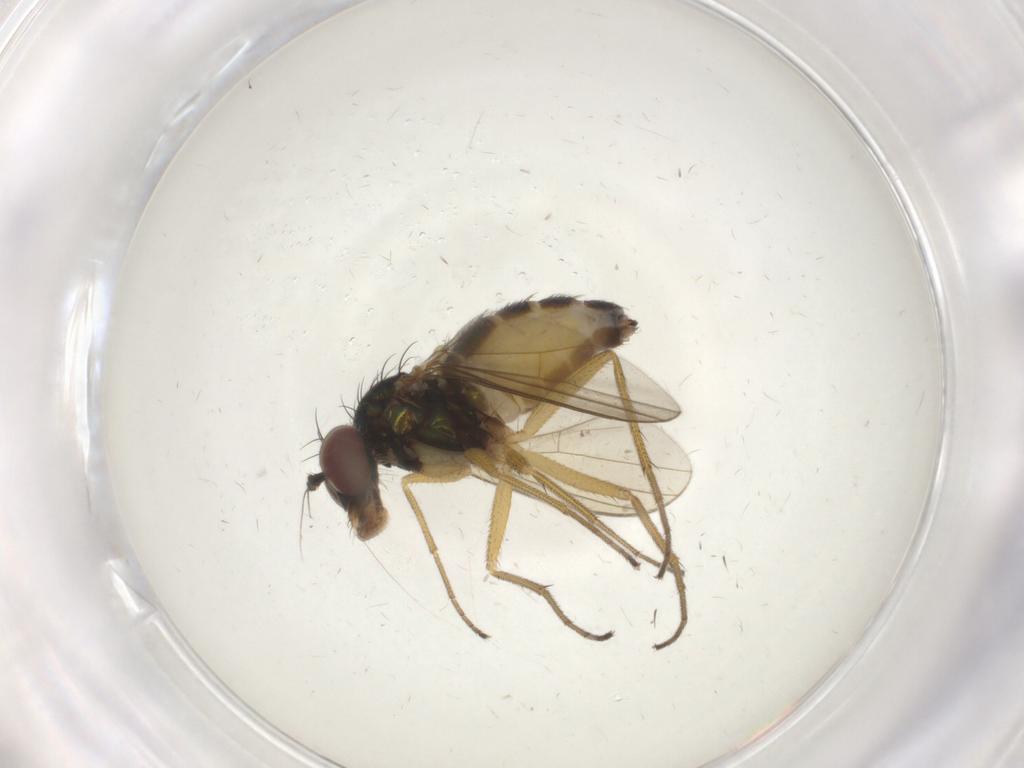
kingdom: Animalia
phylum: Arthropoda
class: Insecta
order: Diptera
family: Dolichopodidae
